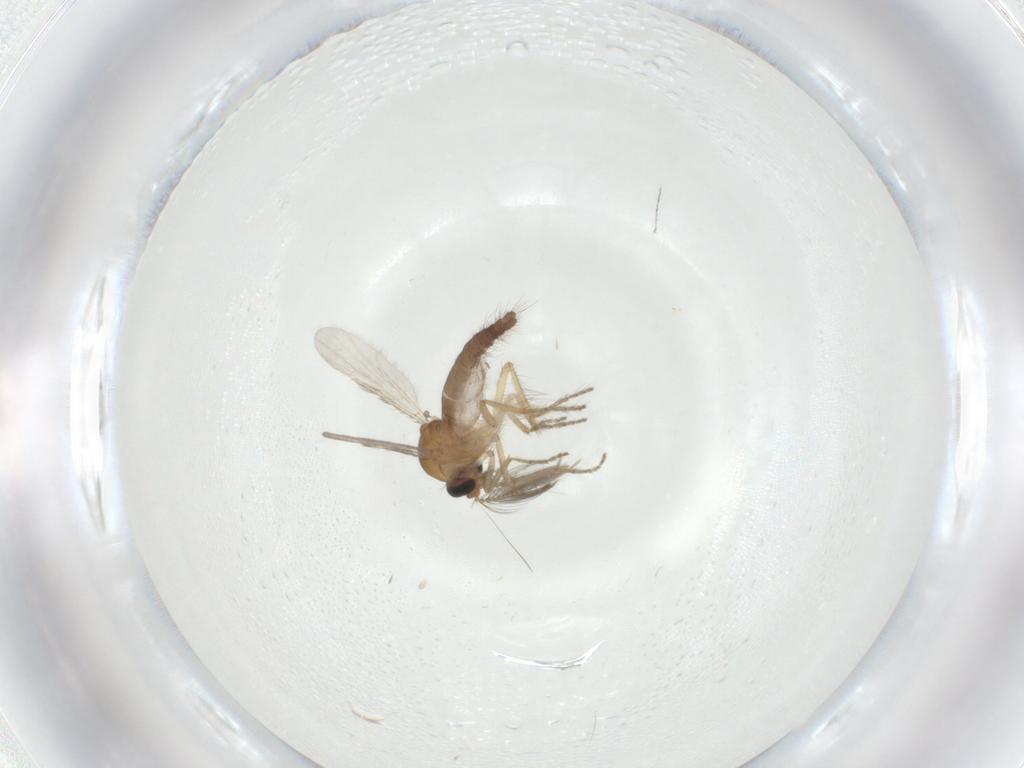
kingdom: Animalia
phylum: Arthropoda
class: Insecta
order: Diptera
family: Ceratopogonidae
